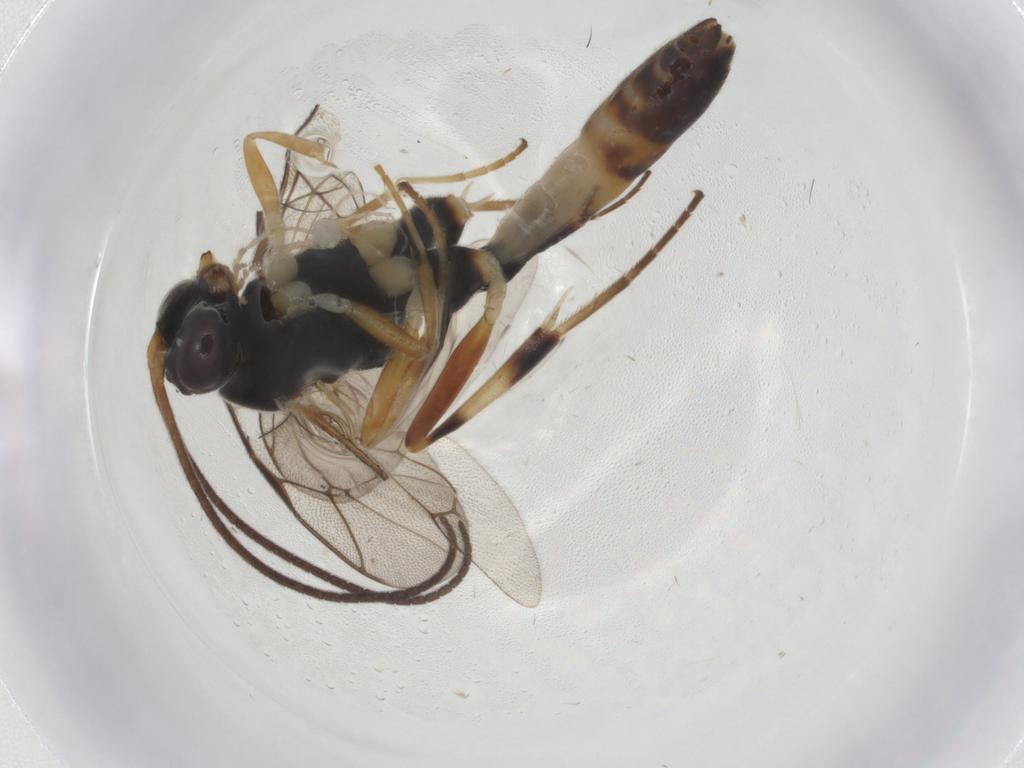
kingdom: Animalia
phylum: Arthropoda
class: Insecta
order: Hymenoptera
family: Ichneumonidae
